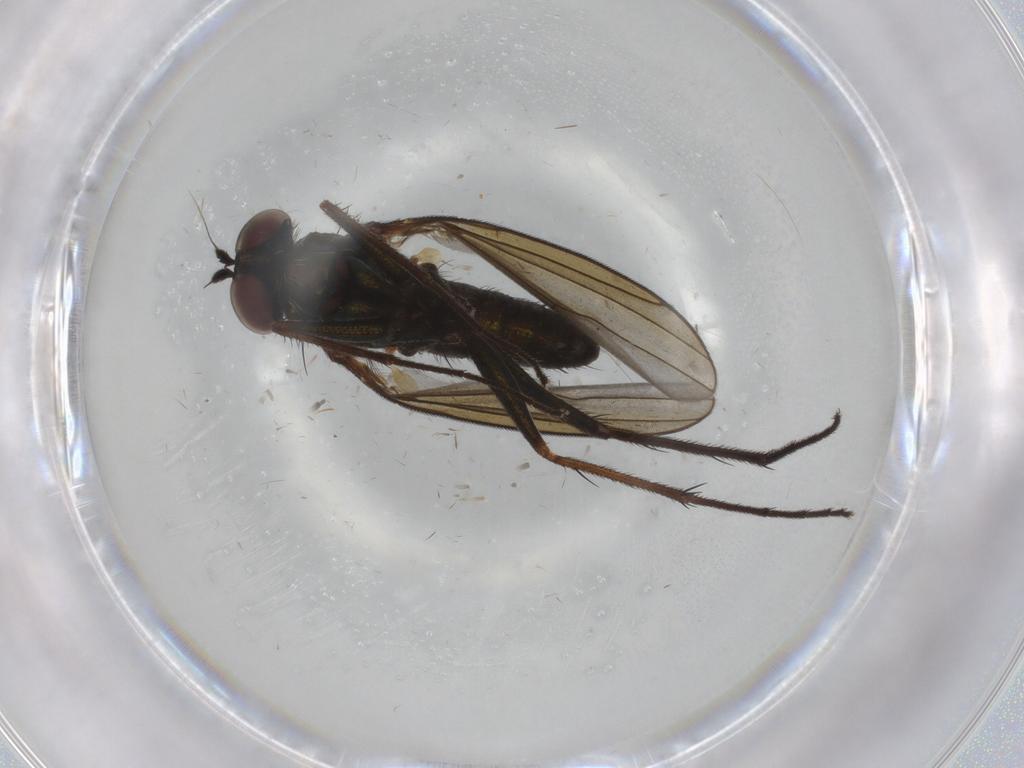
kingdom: Animalia
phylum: Arthropoda
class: Insecta
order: Diptera
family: Dolichopodidae
